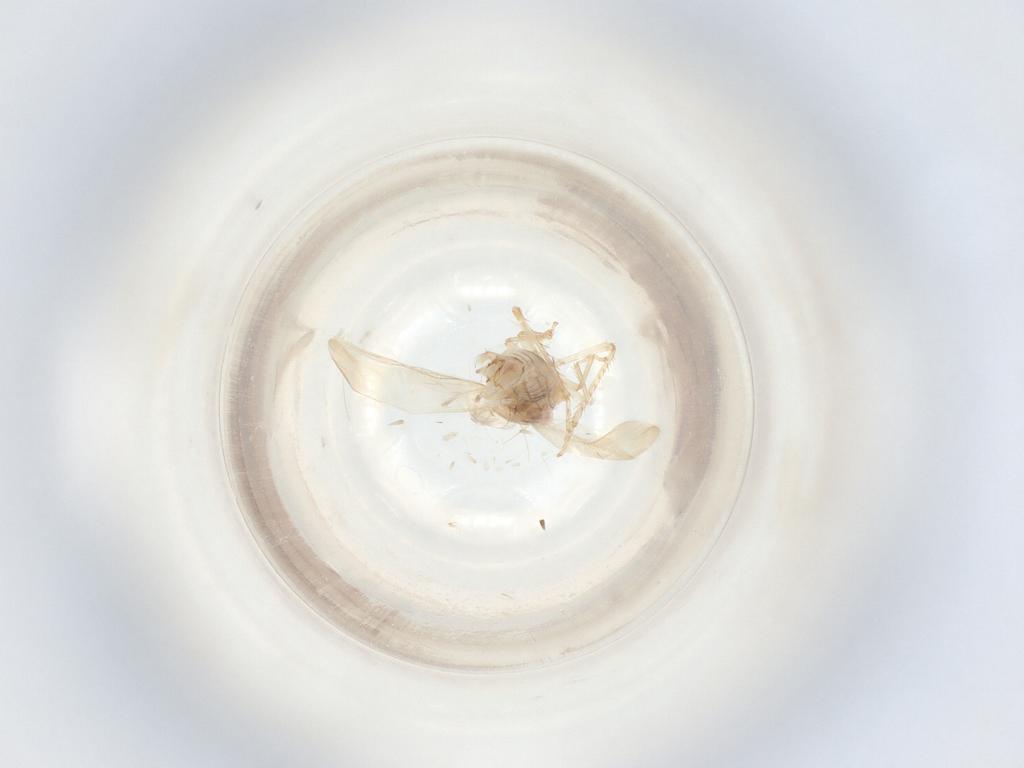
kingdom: Animalia
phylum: Arthropoda
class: Insecta
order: Hemiptera
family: Cicadellidae
